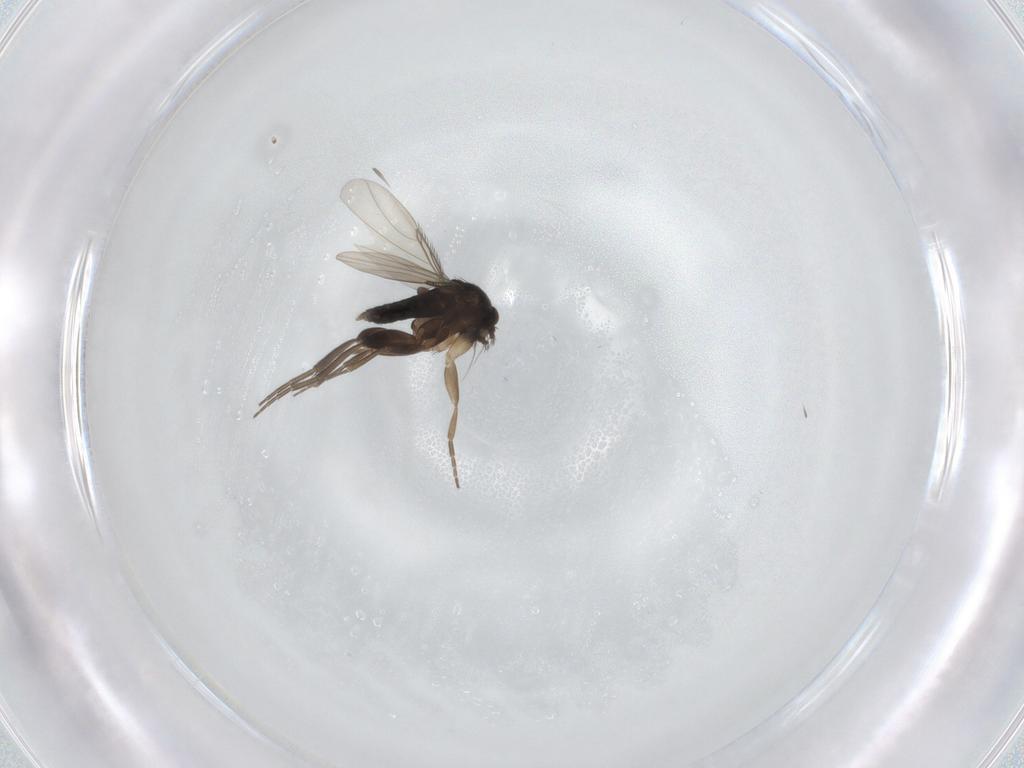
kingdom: Animalia
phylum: Arthropoda
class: Insecta
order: Diptera
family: Phoridae
